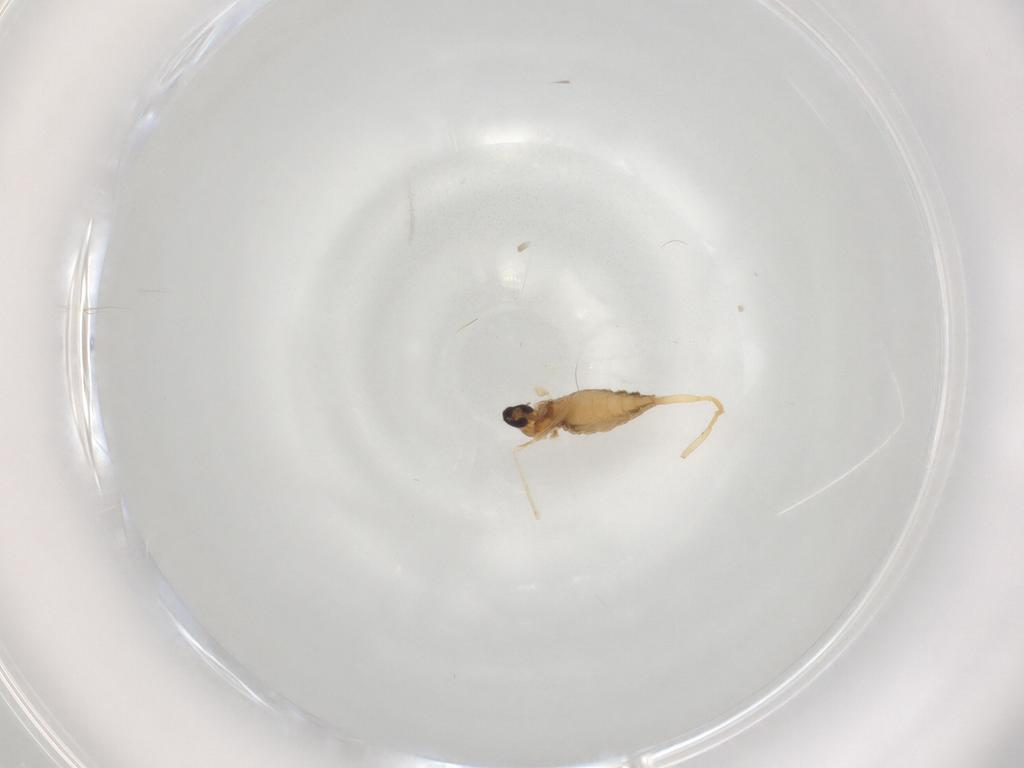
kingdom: Animalia
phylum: Arthropoda
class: Insecta
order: Diptera
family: Cecidomyiidae
